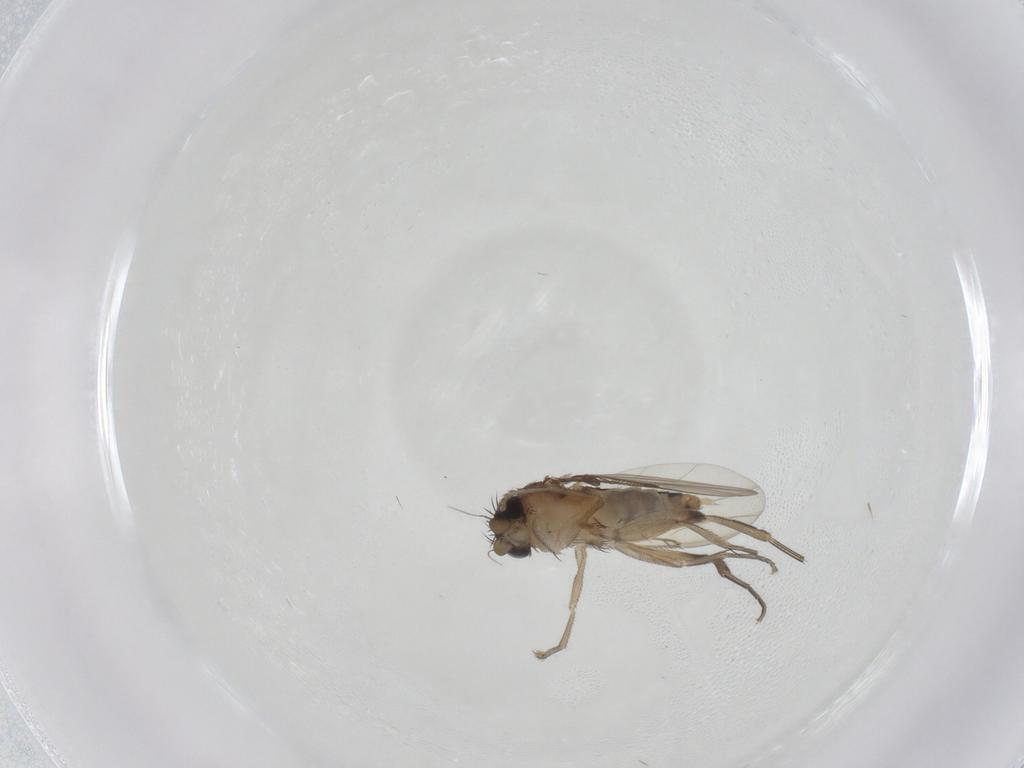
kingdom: Animalia
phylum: Arthropoda
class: Insecta
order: Diptera
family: Phoridae
